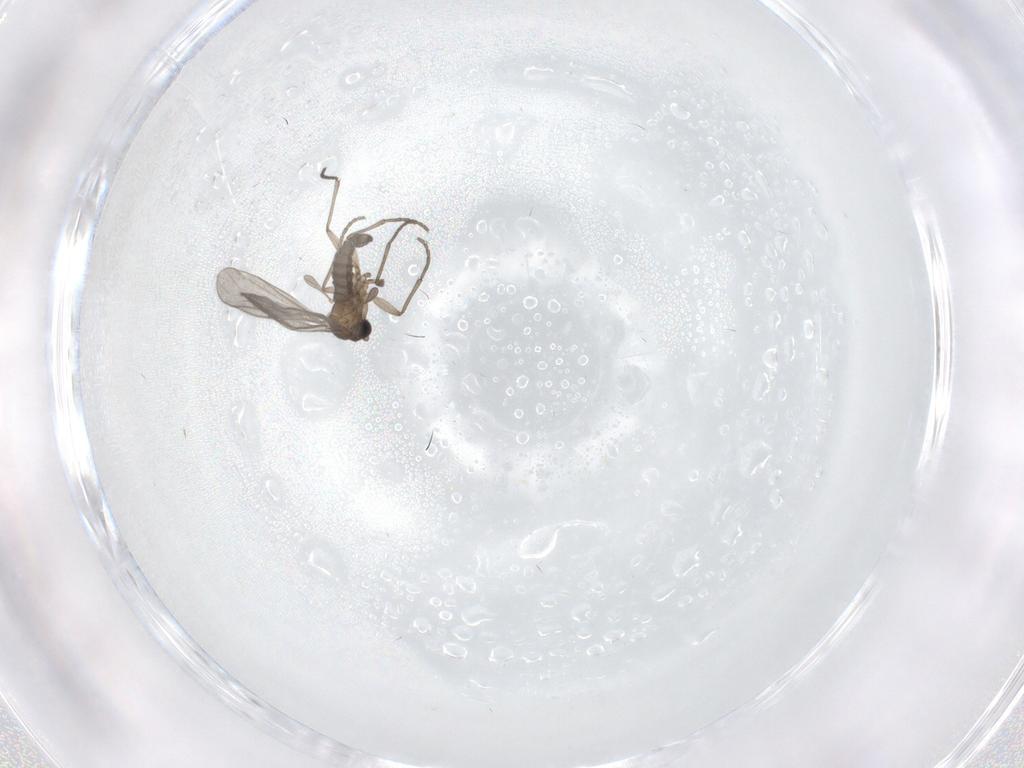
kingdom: Animalia
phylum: Arthropoda
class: Insecta
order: Diptera
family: Sciaridae
